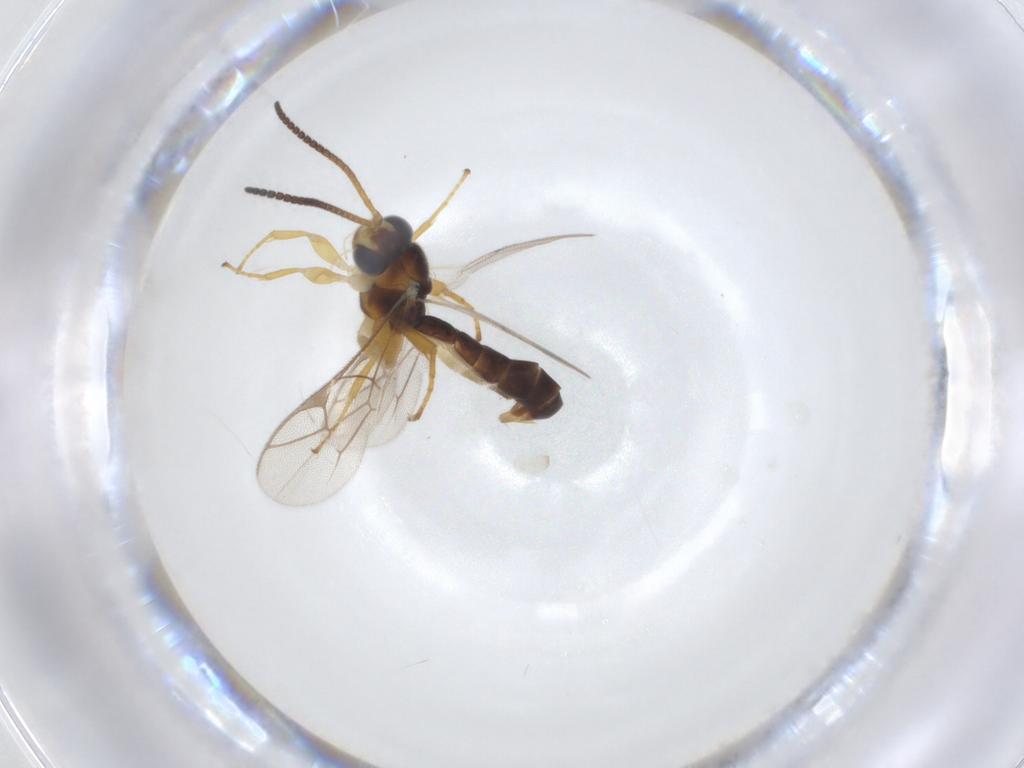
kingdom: Animalia
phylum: Arthropoda
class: Insecta
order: Hymenoptera
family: Ichneumonidae
